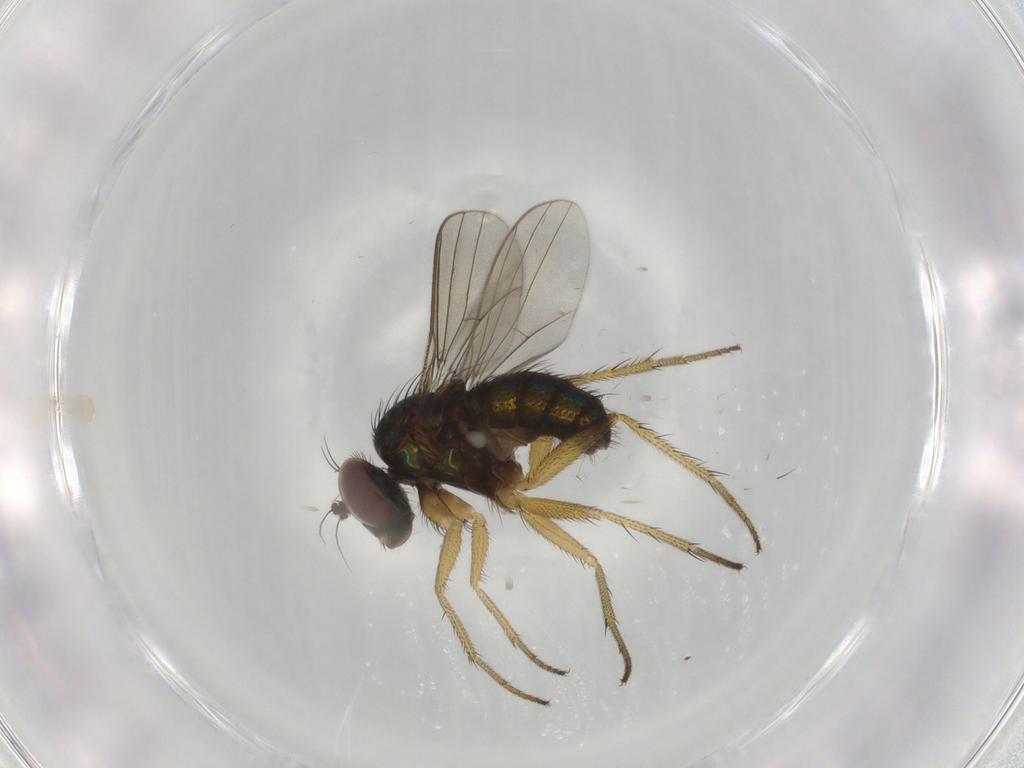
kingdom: Animalia
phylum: Arthropoda
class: Insecta
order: Diptera
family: Dolichopodidae
